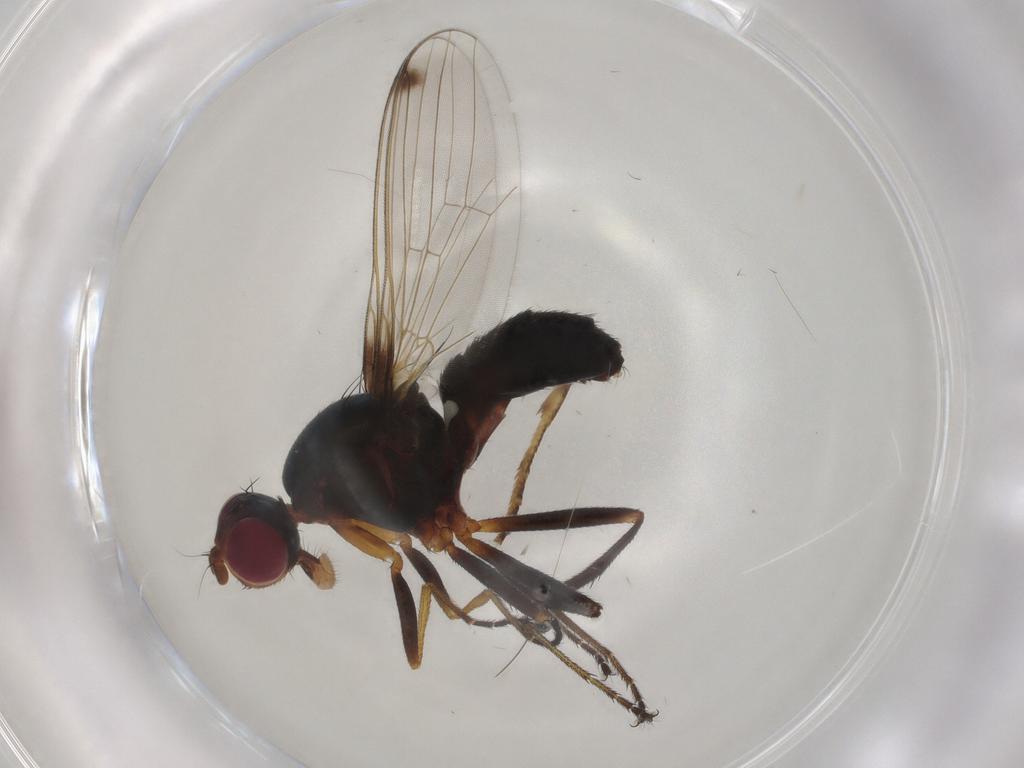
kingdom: Animalia
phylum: Arthropoda
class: Insecta
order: Diptera
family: Sepsidae
